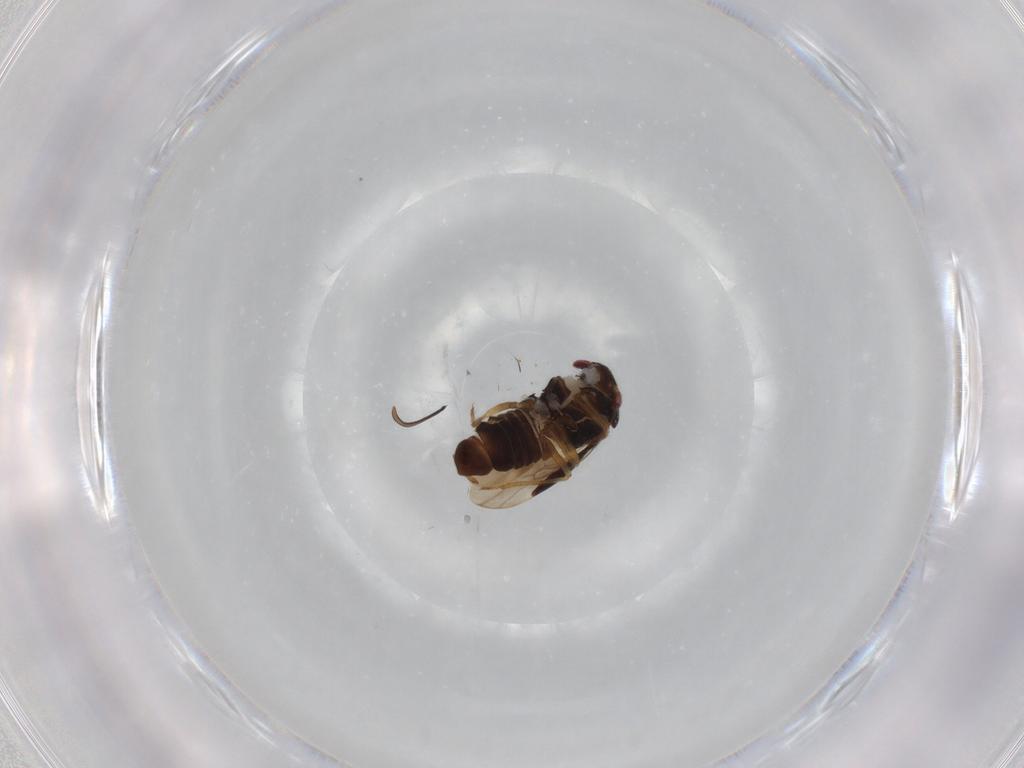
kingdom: Animalia
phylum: Arthropoda
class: Insecta
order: Hemiptera
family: Schizopteridae
